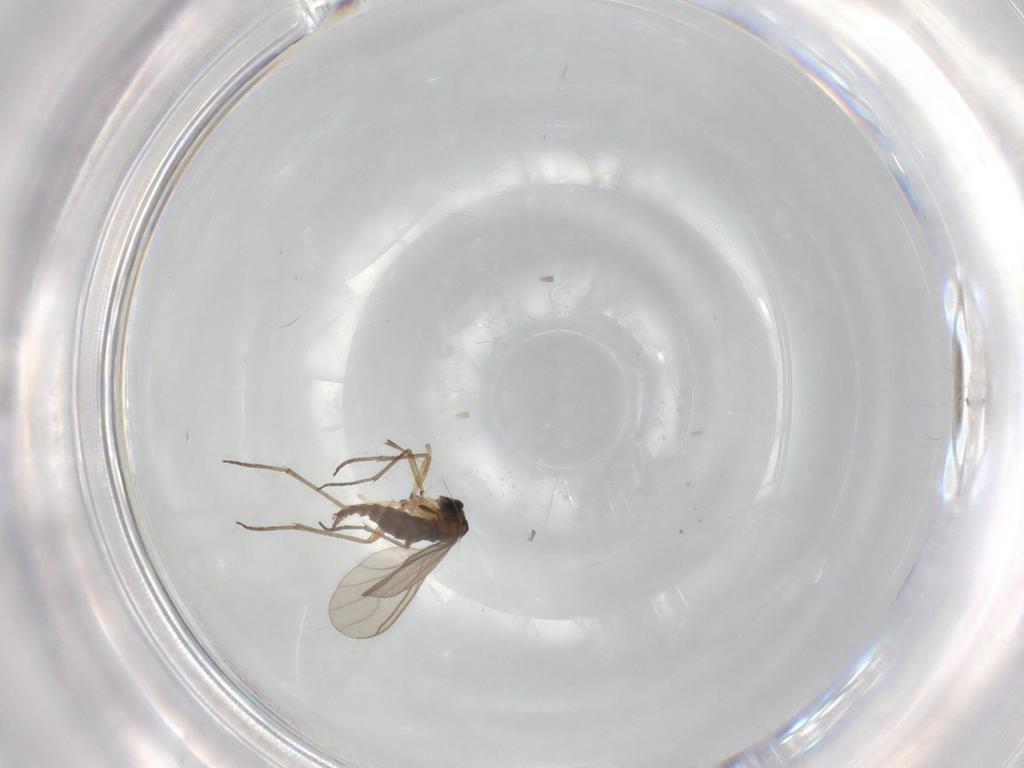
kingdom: Animalia
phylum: Arthropoda
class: Insecta
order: Diptera
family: Sciaridae
